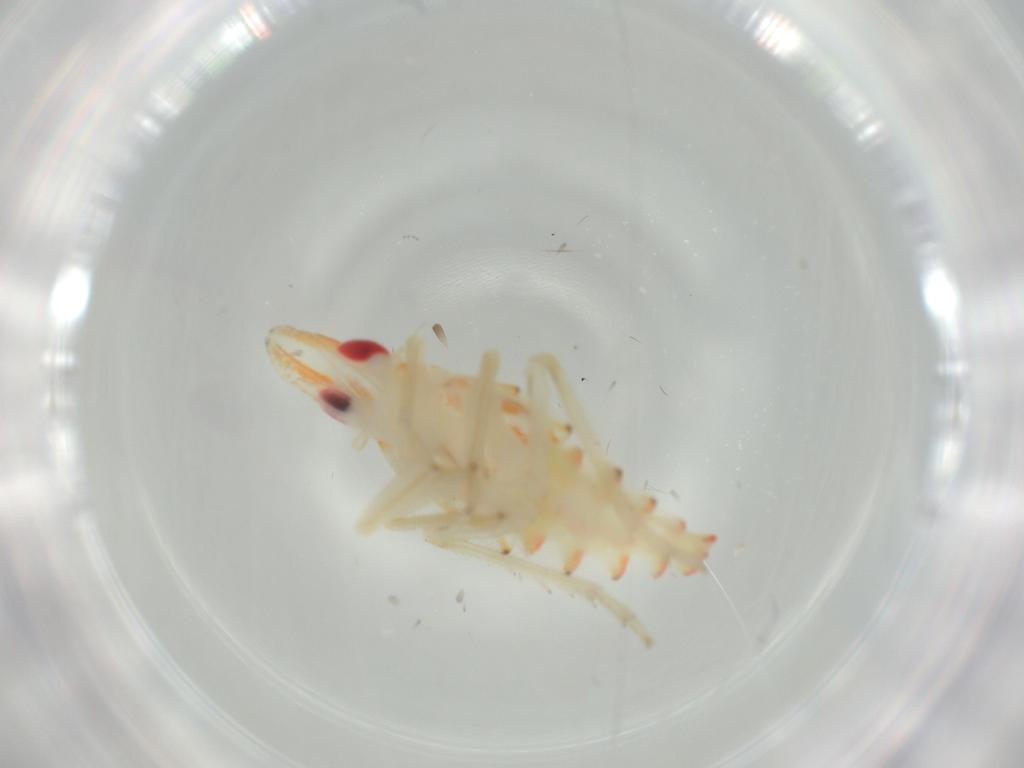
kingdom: Animalia
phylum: Arthropoda
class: Insecta
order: Hemiptera
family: Tropiduchidae
